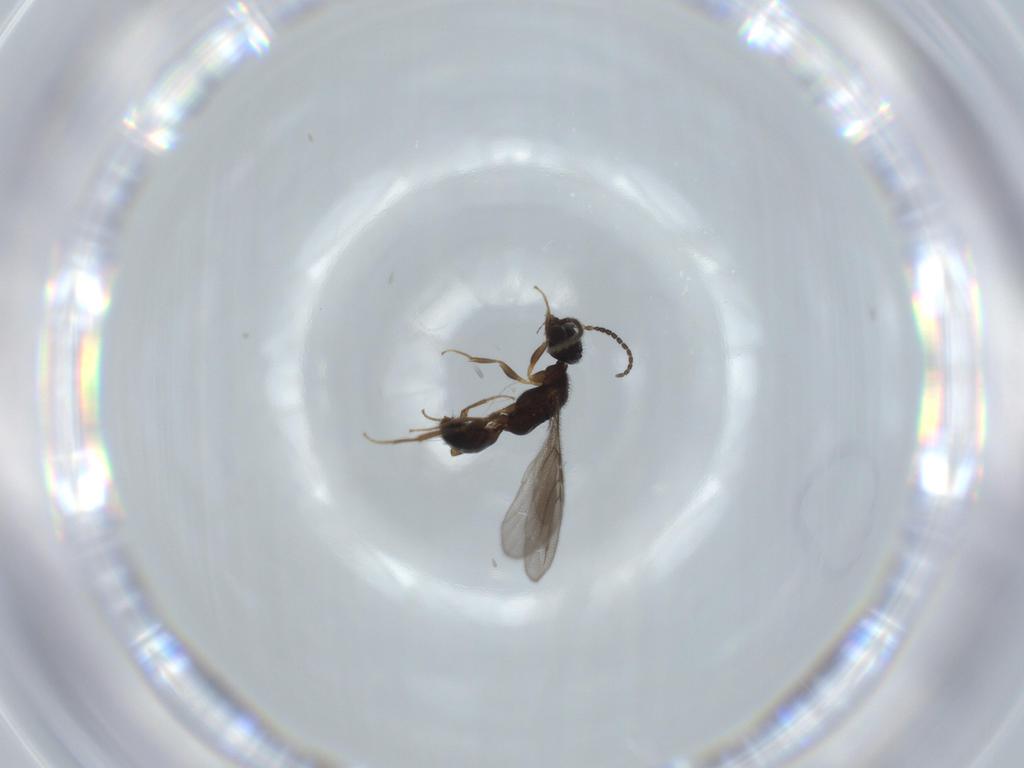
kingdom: Animalia
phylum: Arthropoda
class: Insecta
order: Hymenoptera
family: Bethylidae
